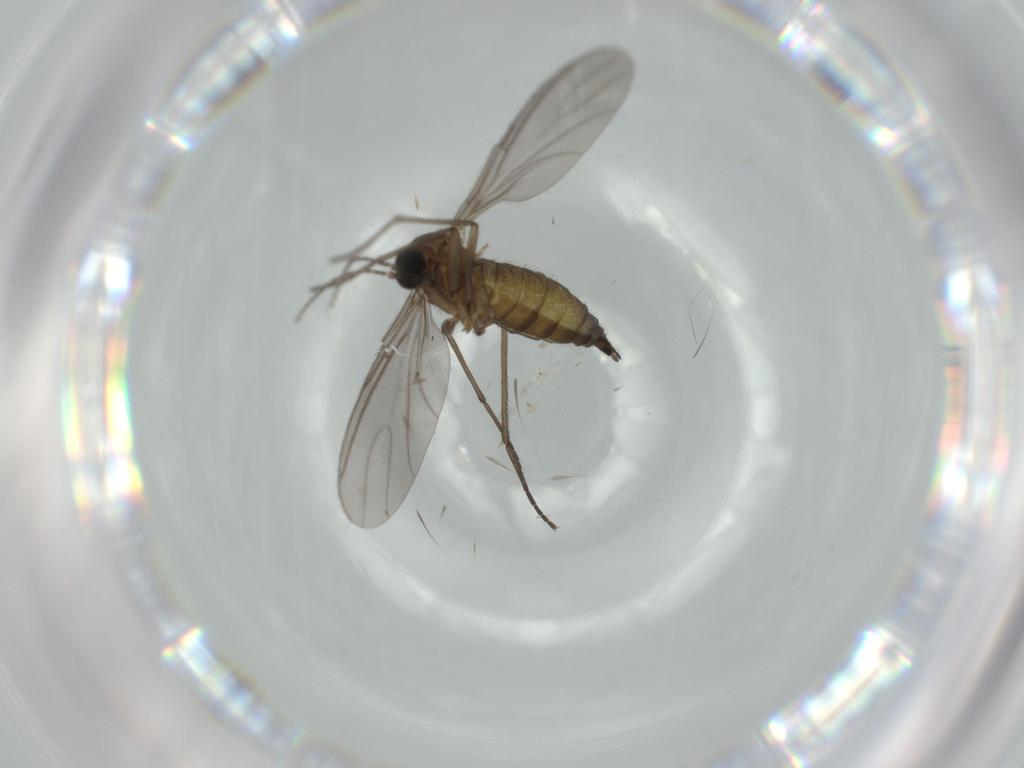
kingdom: Animalia
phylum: Arthropoda
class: Insecta
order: Diptera
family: Sciaridae
